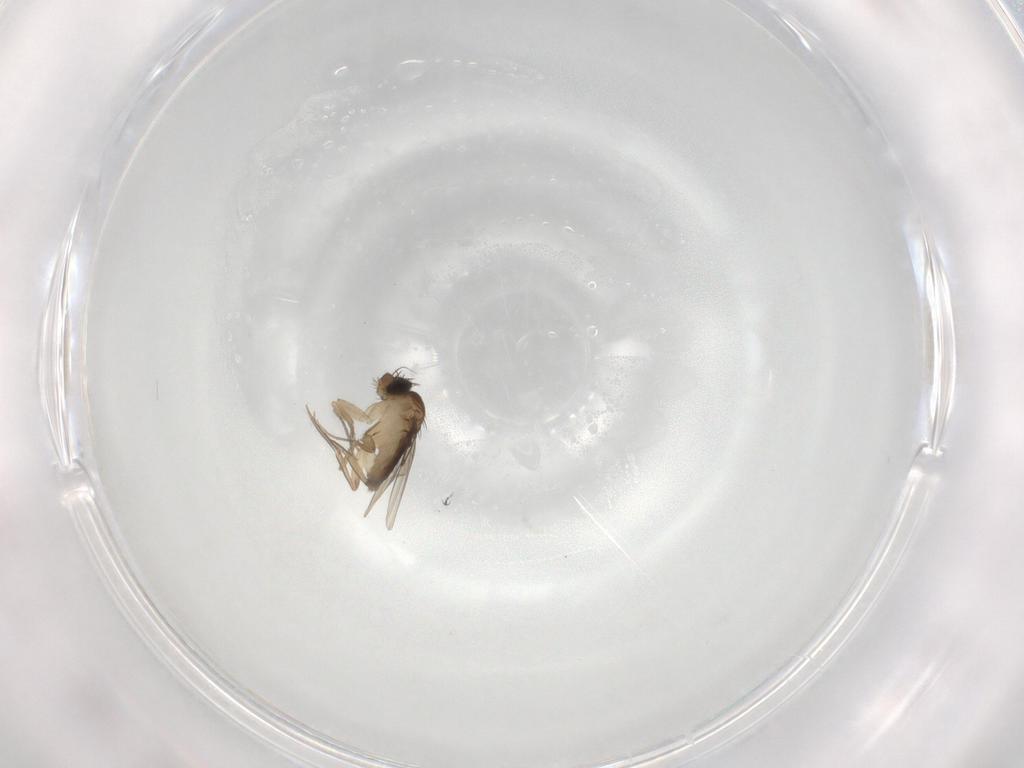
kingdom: Animalia
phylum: Arthropoda
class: Insecta
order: Diptera
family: Phoridae
